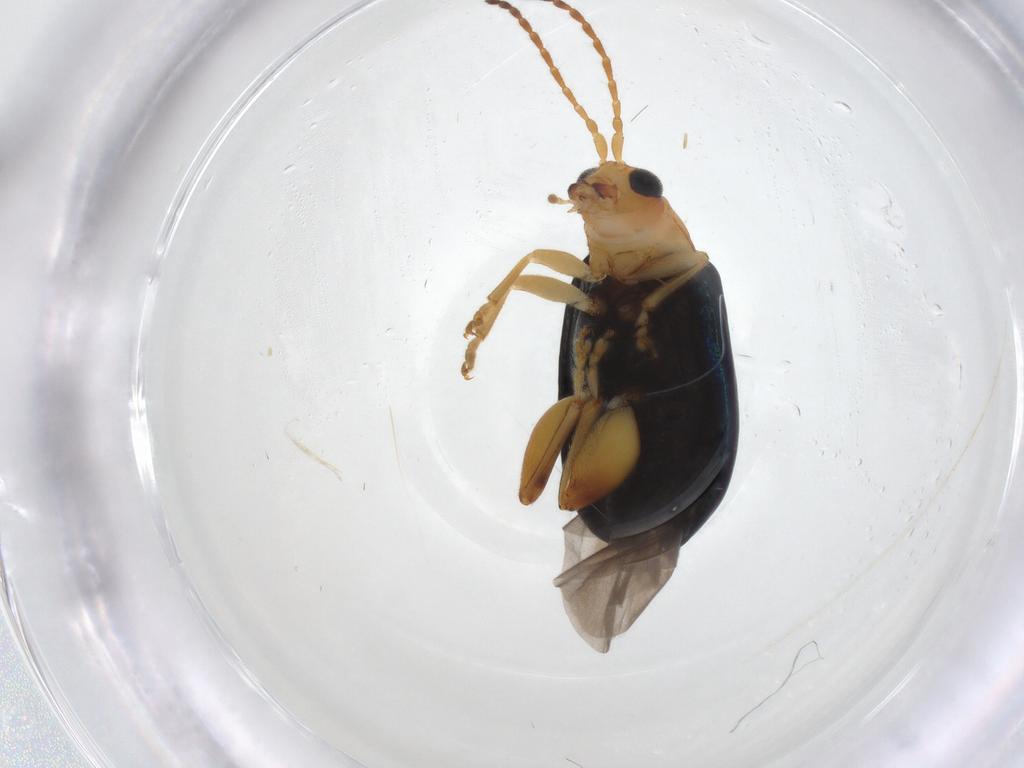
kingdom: Animalia
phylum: Arthropoda
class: Insecta
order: Coleoptera
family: Chrysomelidae
